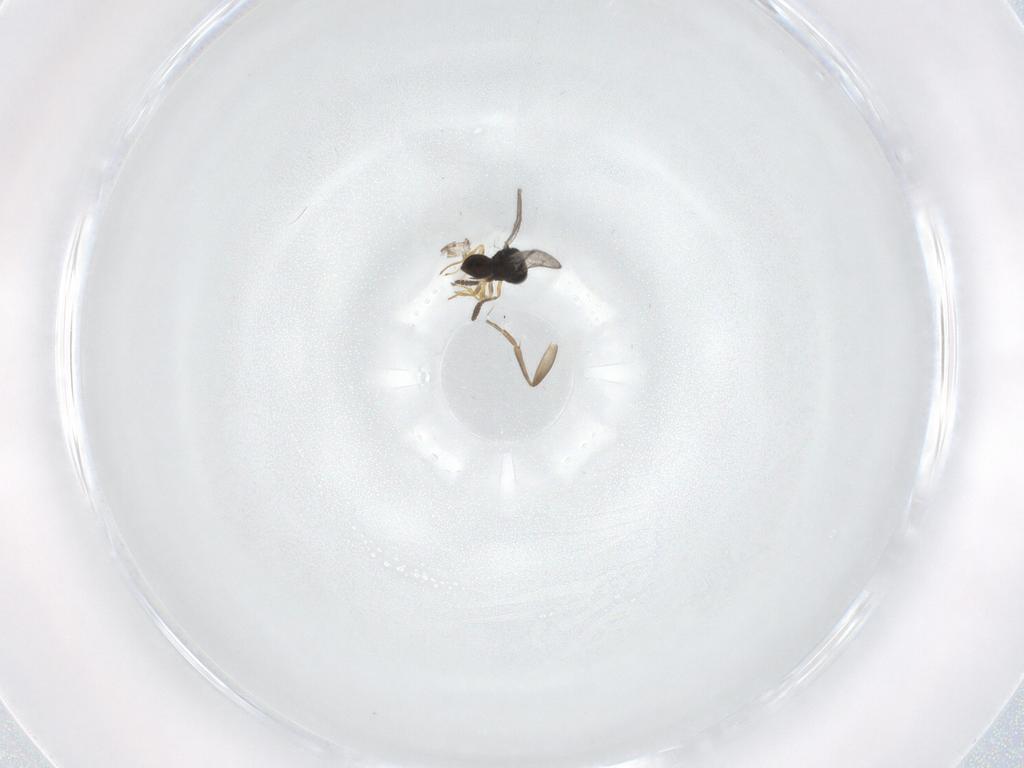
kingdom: Animalia
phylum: Arthropoda
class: Insecta
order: Hymenoptera
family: Scelionidae
